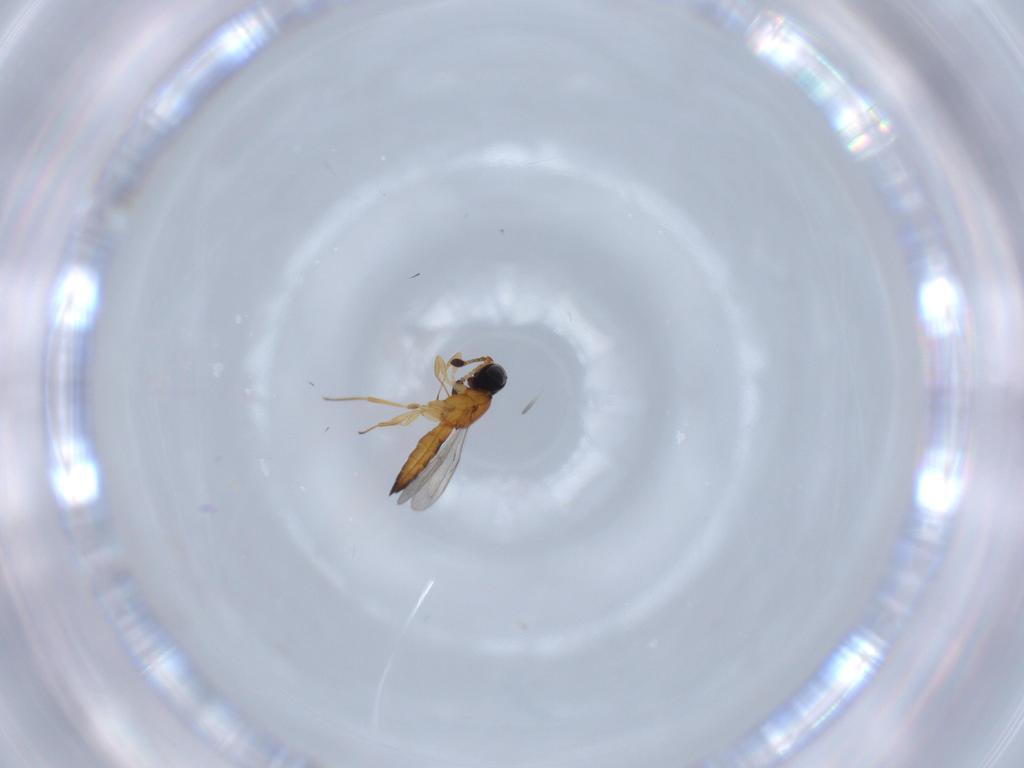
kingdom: Animalia
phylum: Arthropoda
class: Insecta
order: Hymenoptera
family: Formicidae
